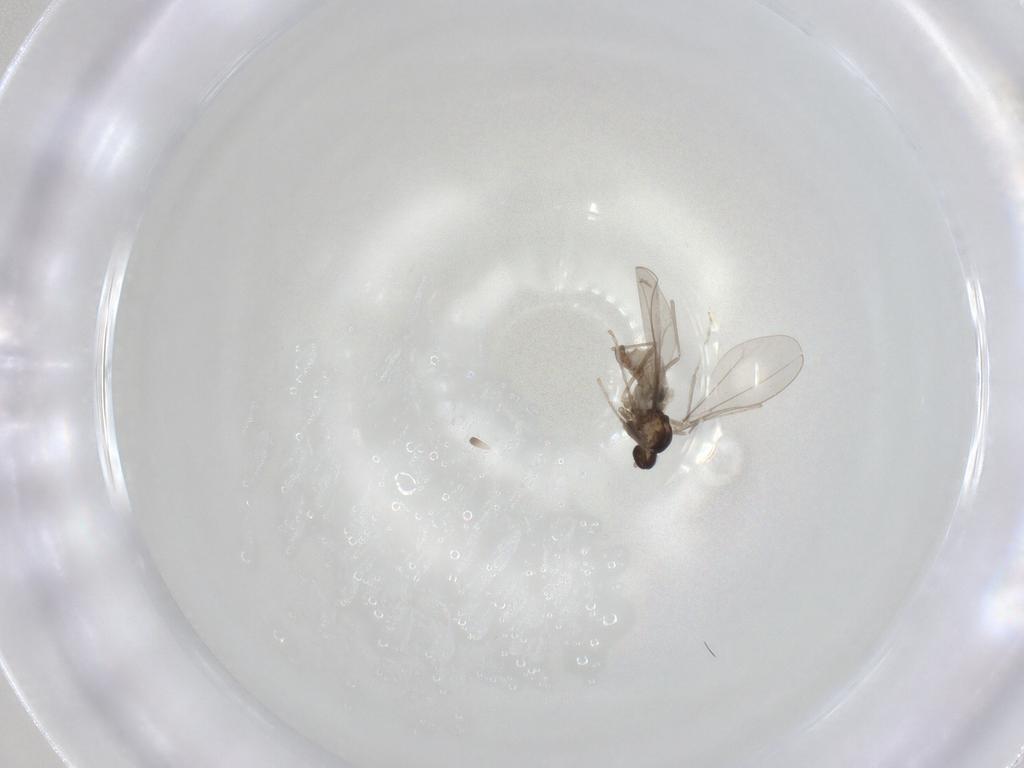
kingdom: Animalia
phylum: Arthropoda
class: Insecta
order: Diptera
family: Cecidomyiidae
